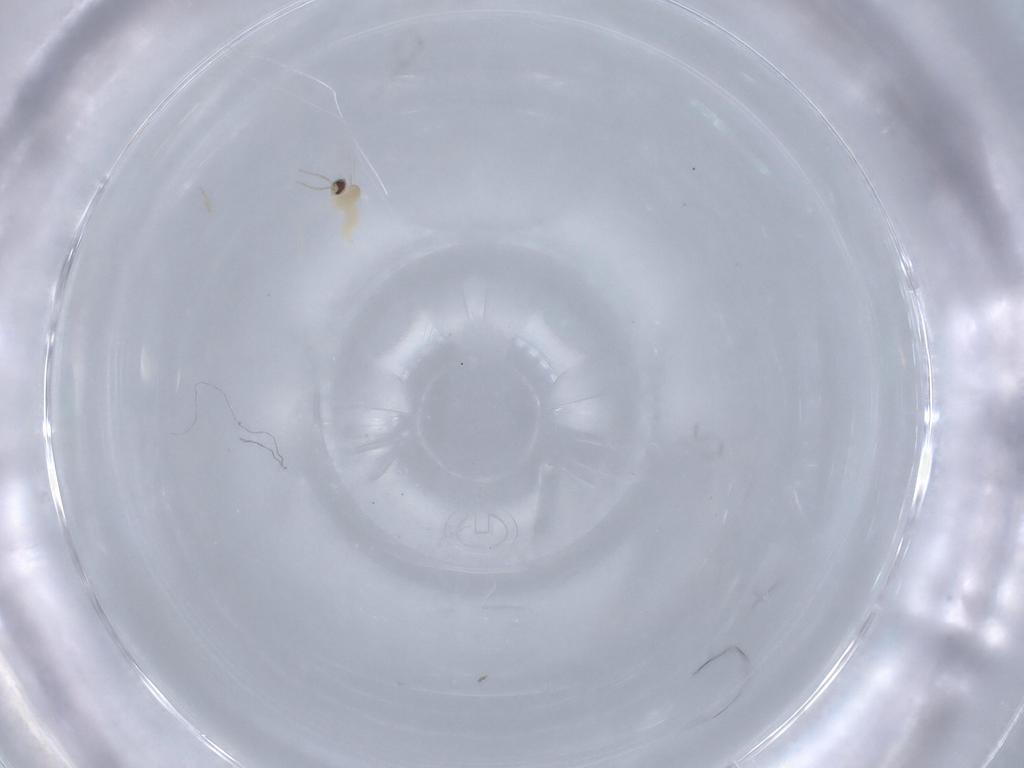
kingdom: Animalia
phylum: Arthropoda
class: Insecta
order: Diptera
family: Cecidomyiidae
